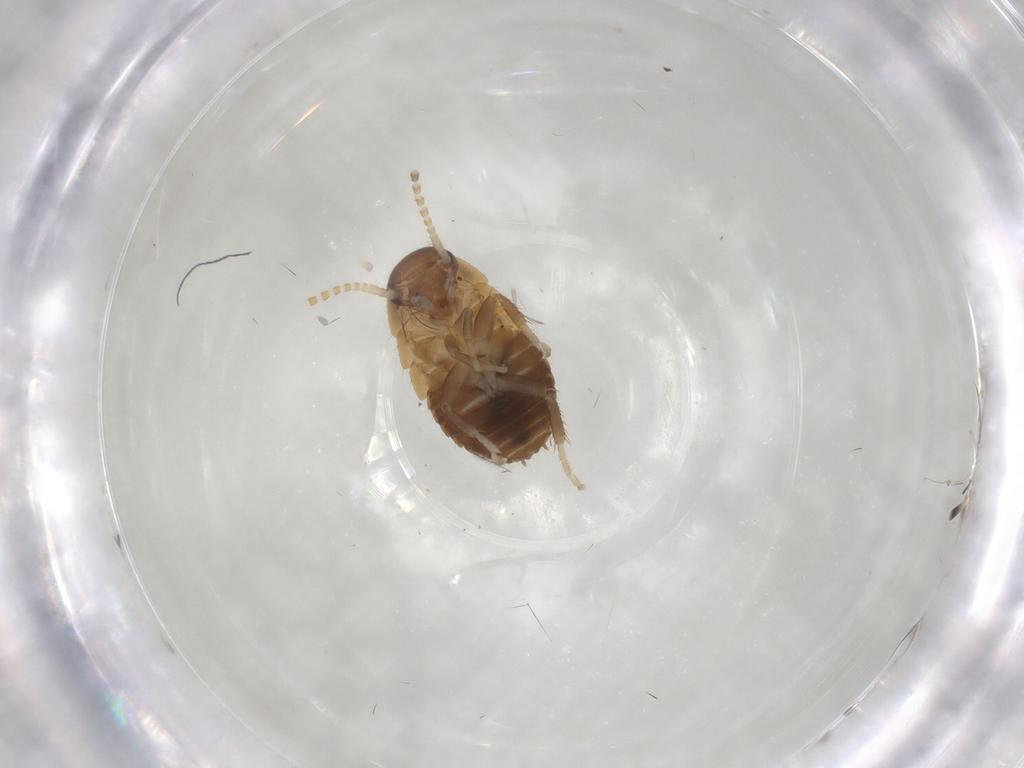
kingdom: Animalia
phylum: Arthropoda
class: Insecta
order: Blattodea
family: Ectobiidae
